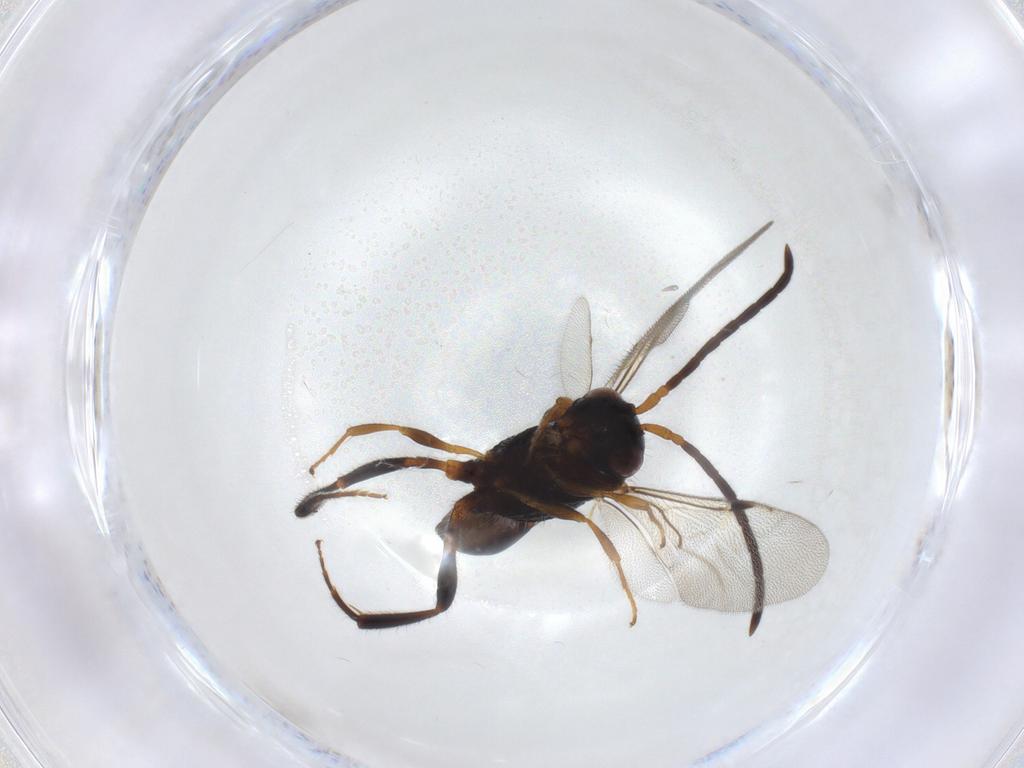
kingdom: Animalia
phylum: Arthropoda
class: Insecta
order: Hymenoptera
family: Evaniidae
